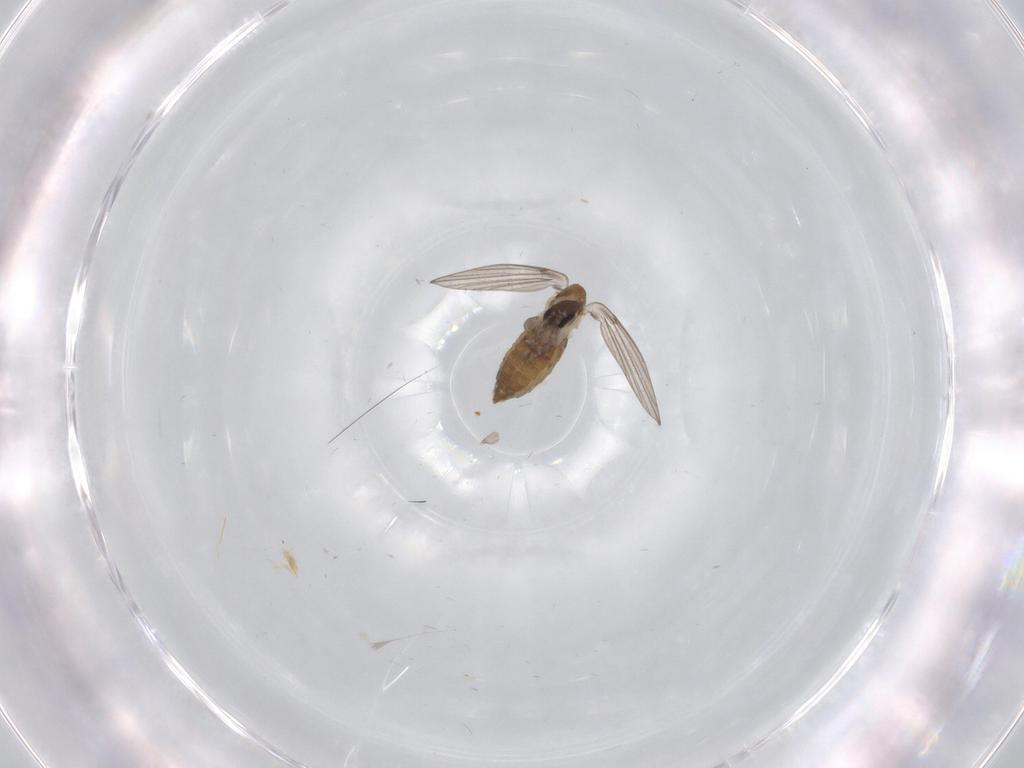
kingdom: Animalia
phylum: Arthropoda
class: Insecta
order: Diptera
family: Psychodidae
